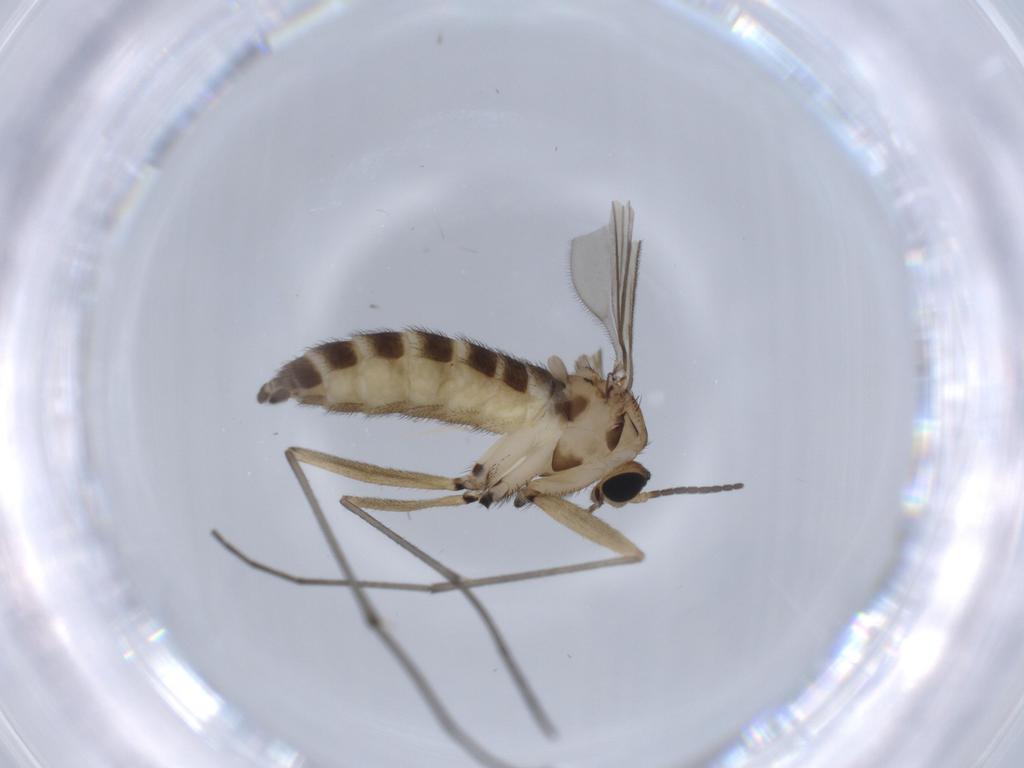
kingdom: Animalia
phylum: Arthropoda
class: Insecta
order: Diptera
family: Sciaridae
